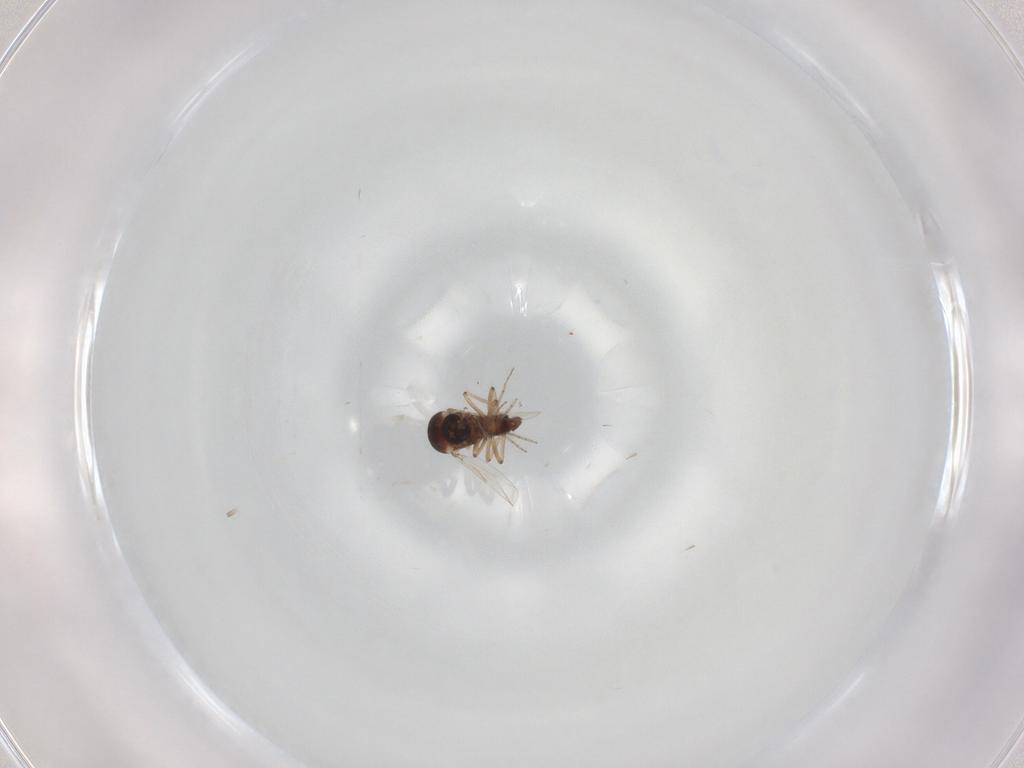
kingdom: Animalia
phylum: Arthropoda
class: Insecta
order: Diptera
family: Ceratopogonidae
